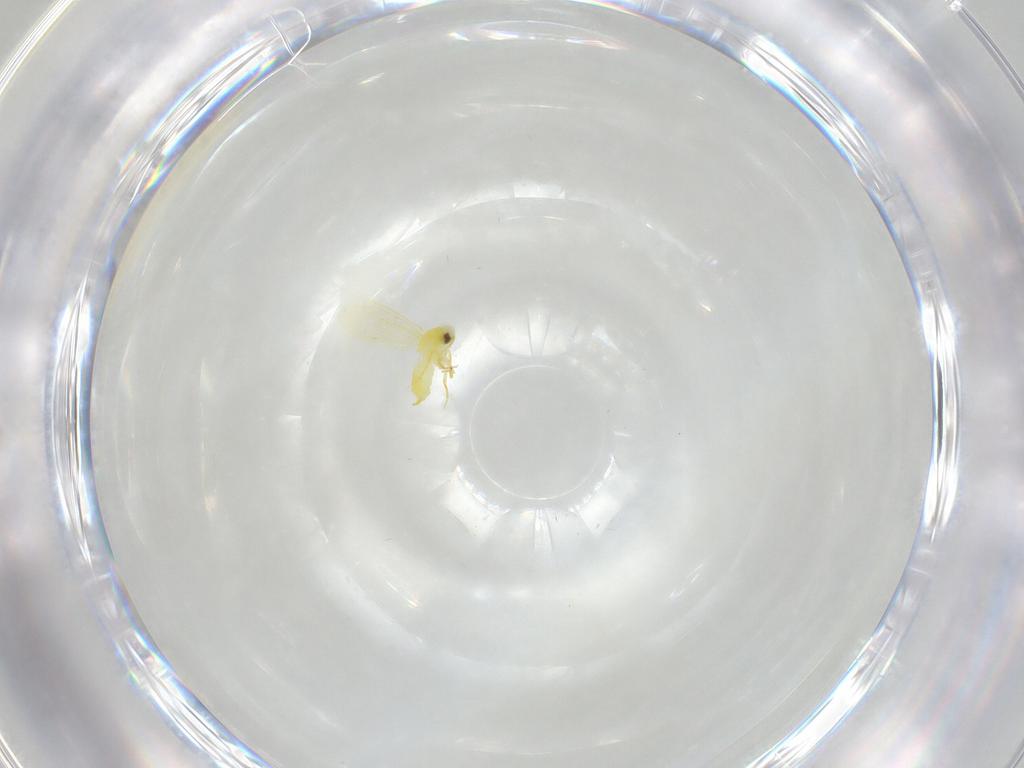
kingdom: Animalia
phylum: Arthropoda
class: Insecta
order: Hemiptera
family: Aleyrodidae
